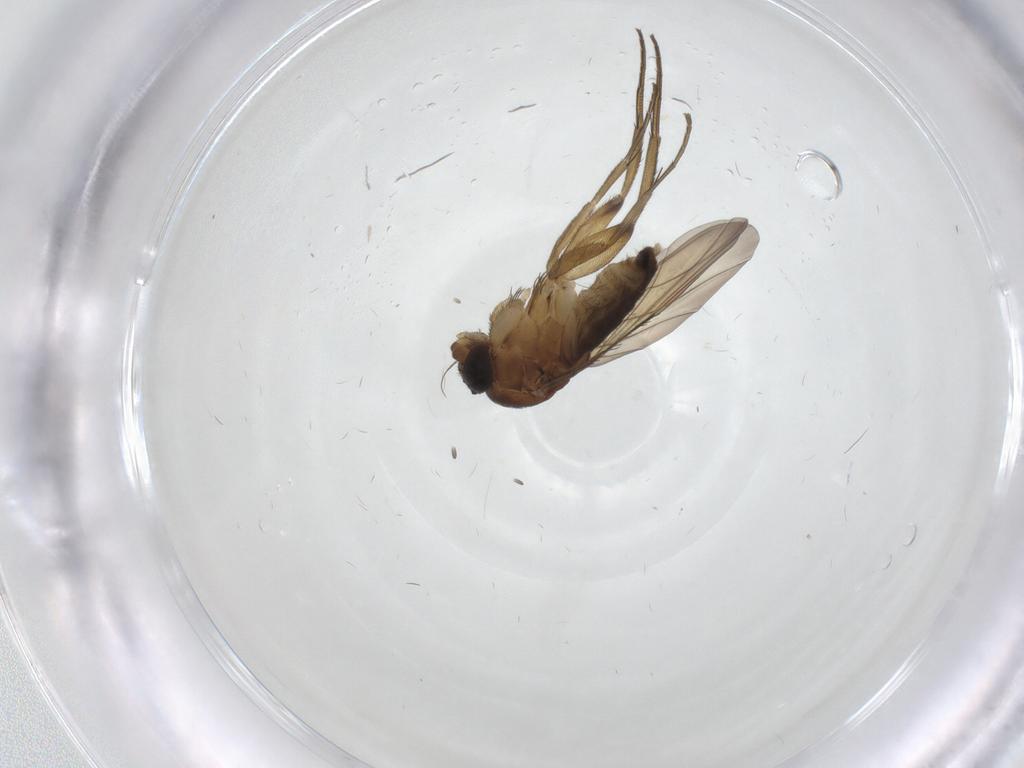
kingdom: Animalia
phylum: Arthropoda
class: Insecta
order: Diptera
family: Phoridae
